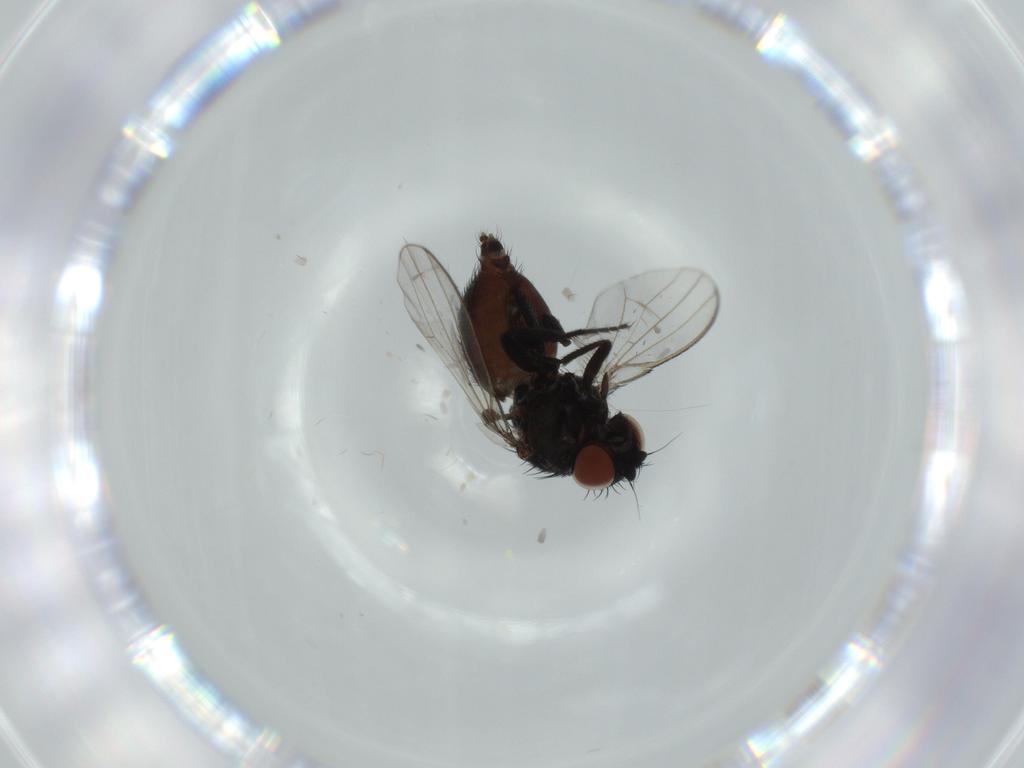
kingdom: Animalia
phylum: Arthropoda
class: Insecta
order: Diptera
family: Milichiidae
